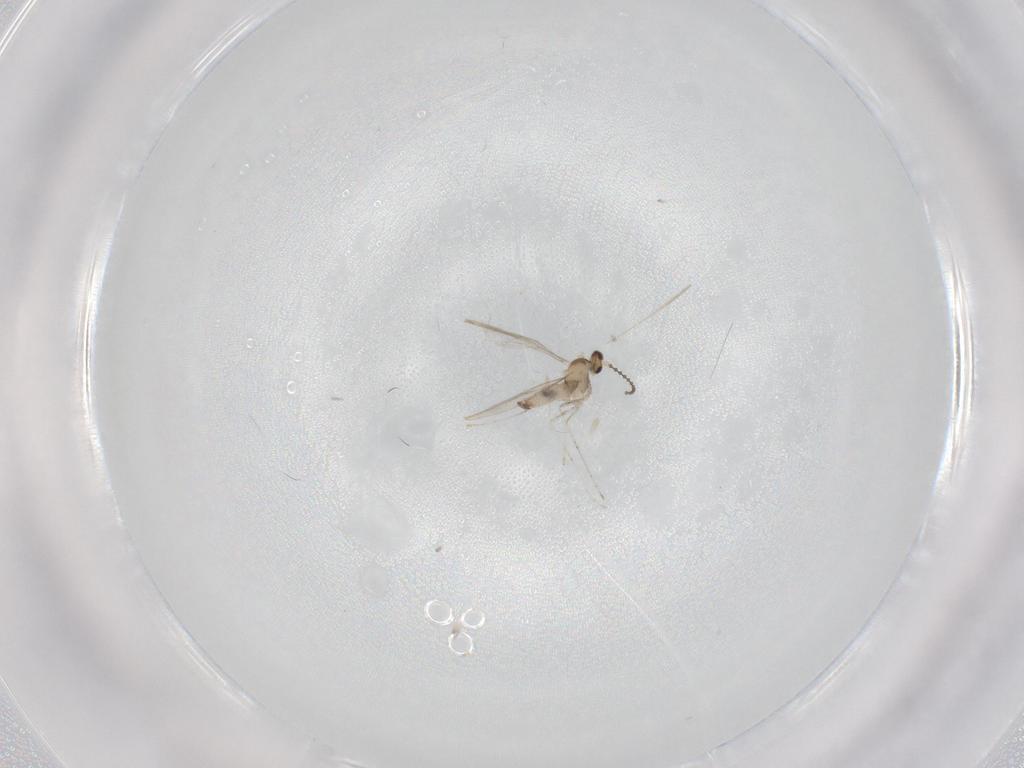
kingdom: Animalia
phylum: Arthropoda
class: Insecta
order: Diptera
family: Cecidomyiidae
